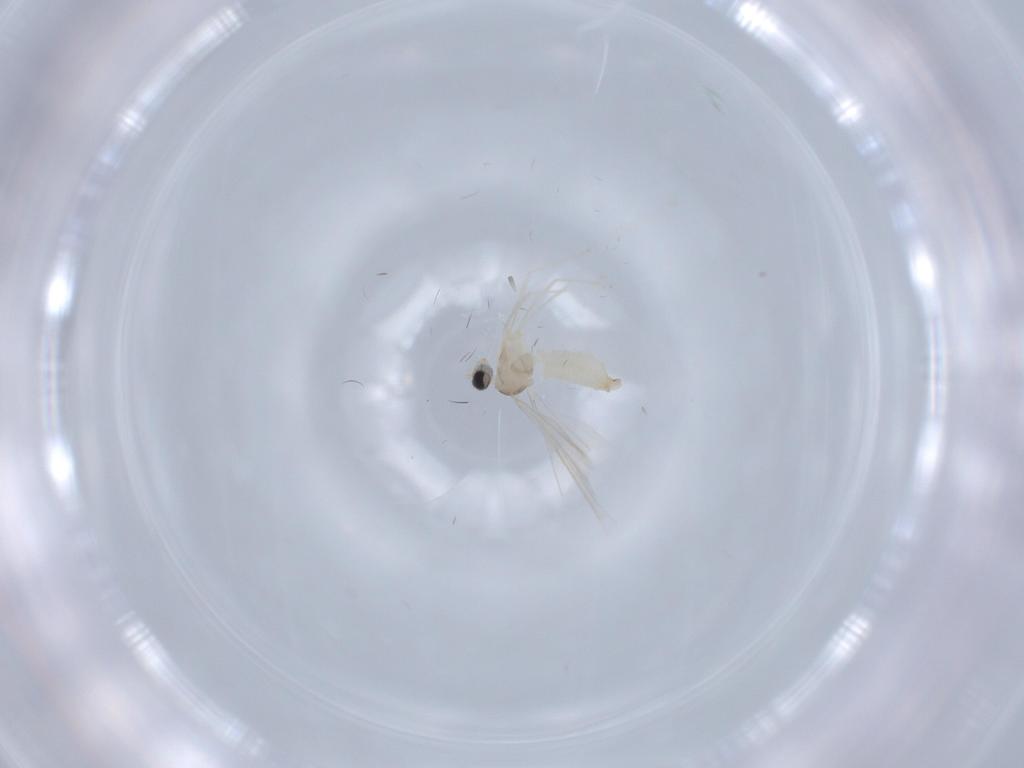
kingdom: Animalia
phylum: Arthropoda
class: Insecta
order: Diptera
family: Cecidomyiidae
